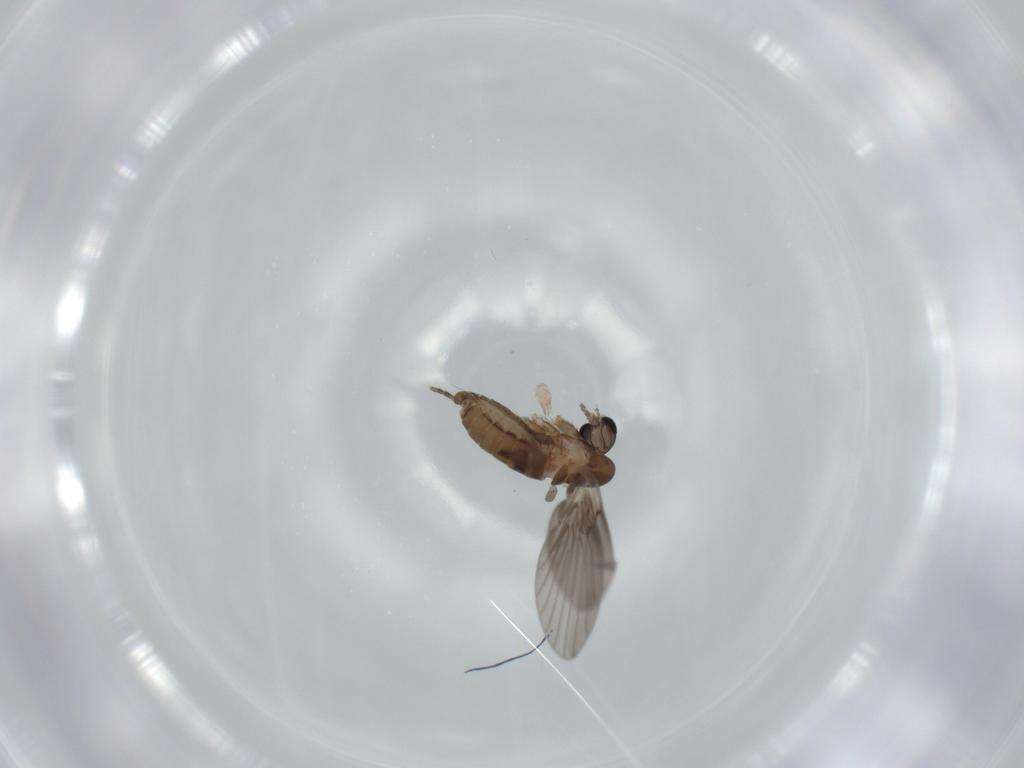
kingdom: Animalia
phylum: Arthropoda
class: Insecta
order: Diptera
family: Psychodidae
